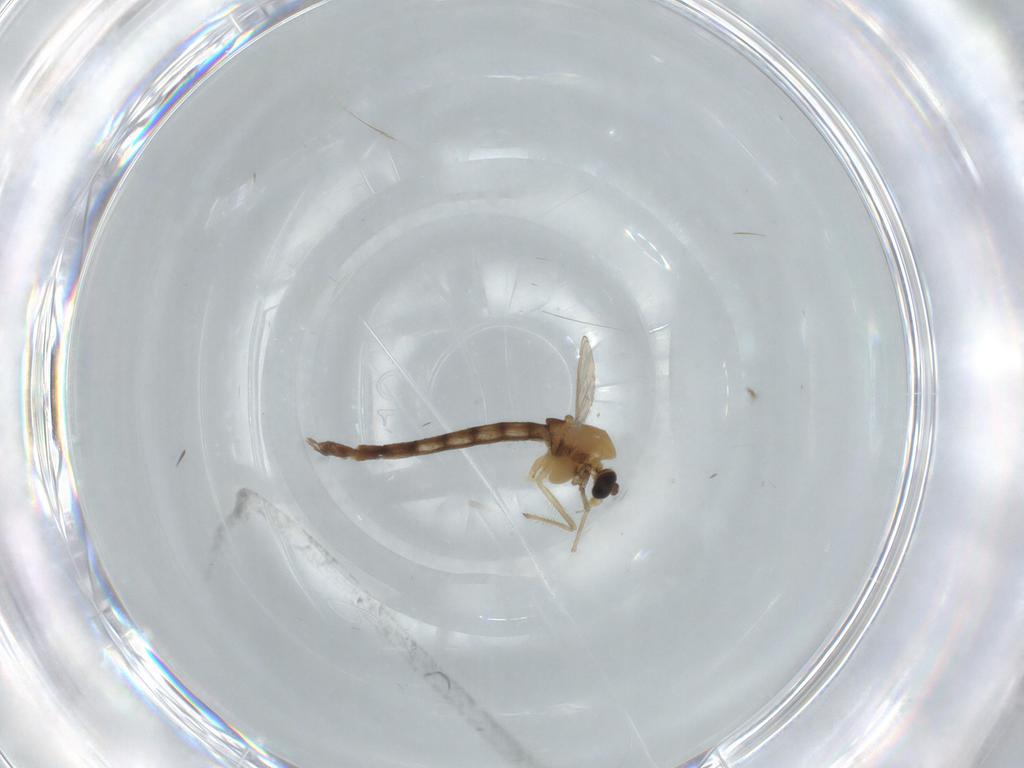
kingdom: Animalia
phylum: Arthropoda
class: Insecta
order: Diptera
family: Chironomidae
